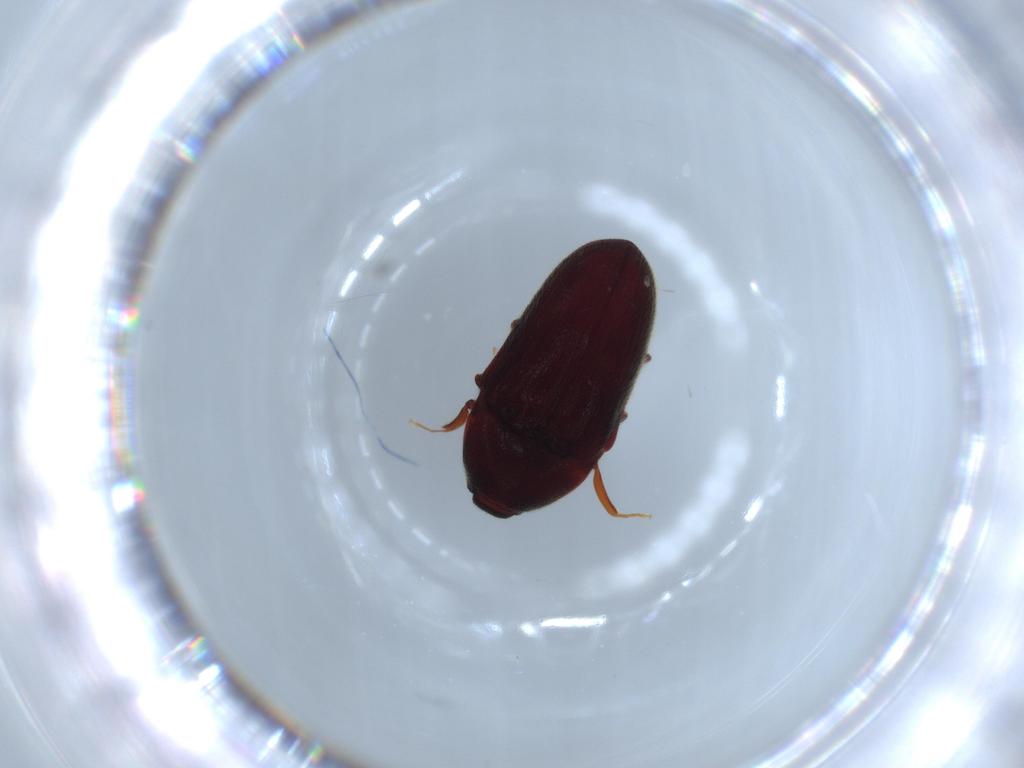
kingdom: Animalia
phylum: Arthropoda
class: Insecta
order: Coleoptera
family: Throscidae
